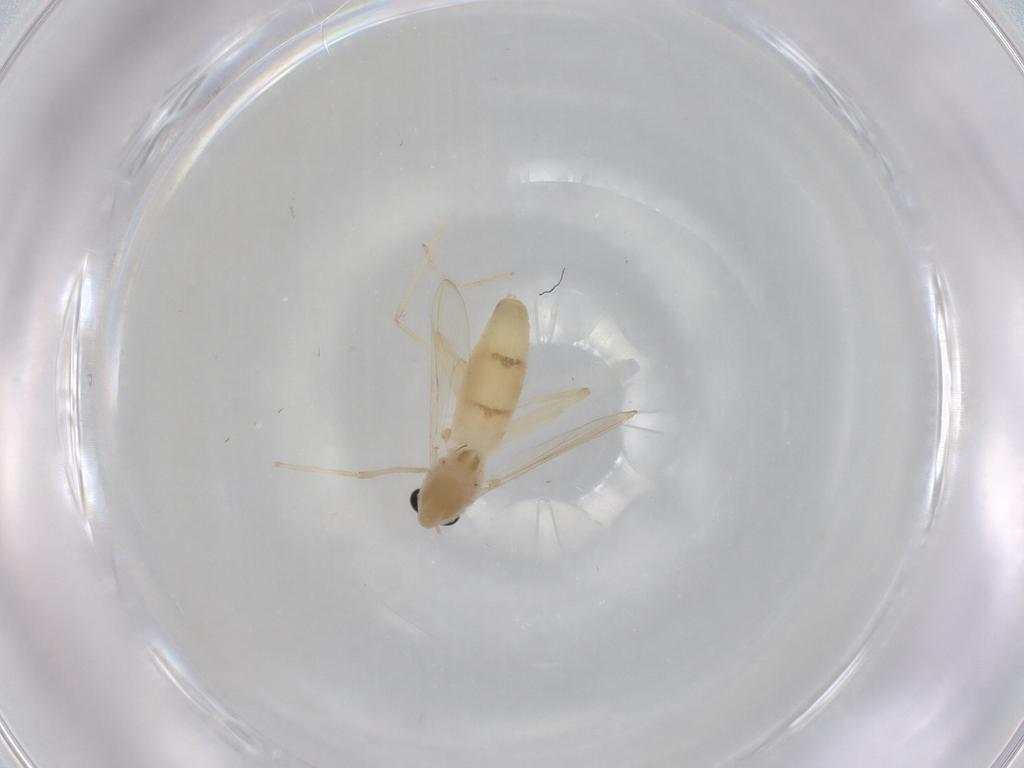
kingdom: Animalia
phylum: Arthropoda
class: Insecta
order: Diptera
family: Chironomidae
